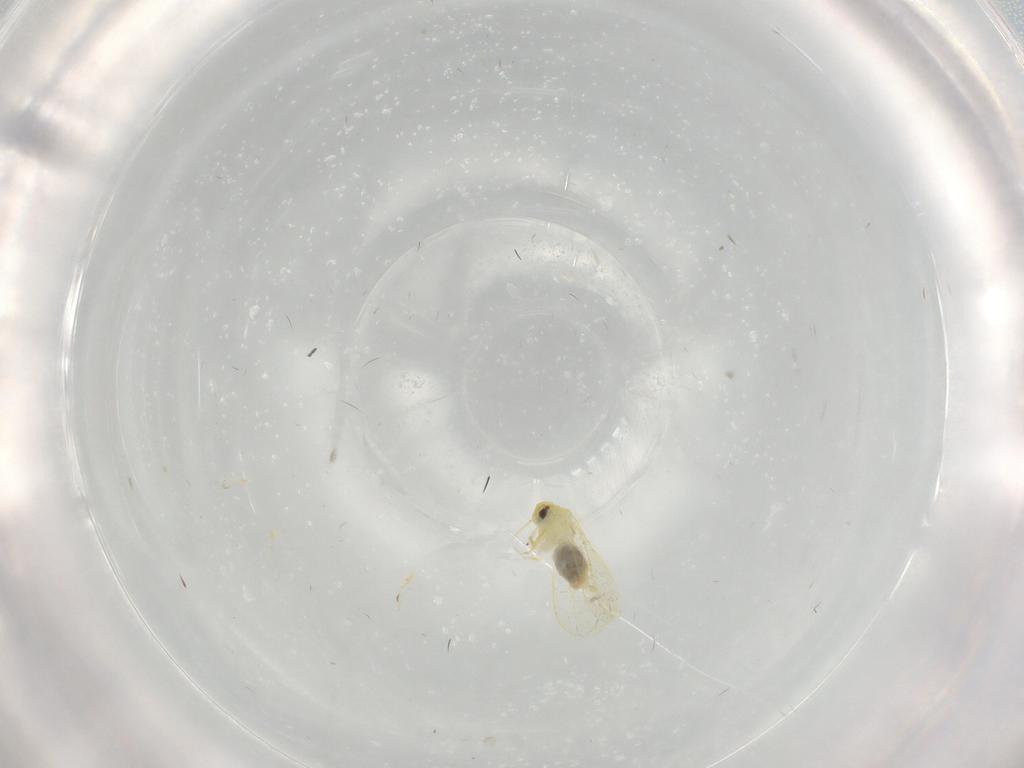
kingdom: Animalia
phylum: Arthropoda
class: Insecta
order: Hemiptera
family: Aleyrodidae
